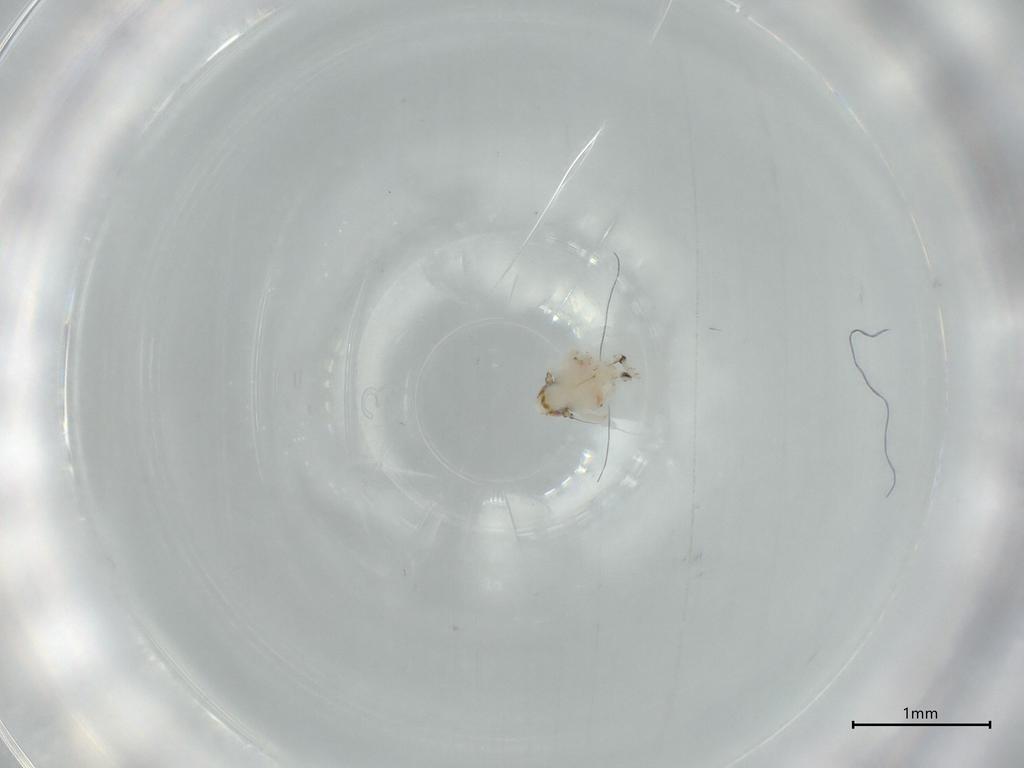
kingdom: Animalia
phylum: Arthropoda
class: Insecta
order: Hemiptera
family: Nogodinidae
